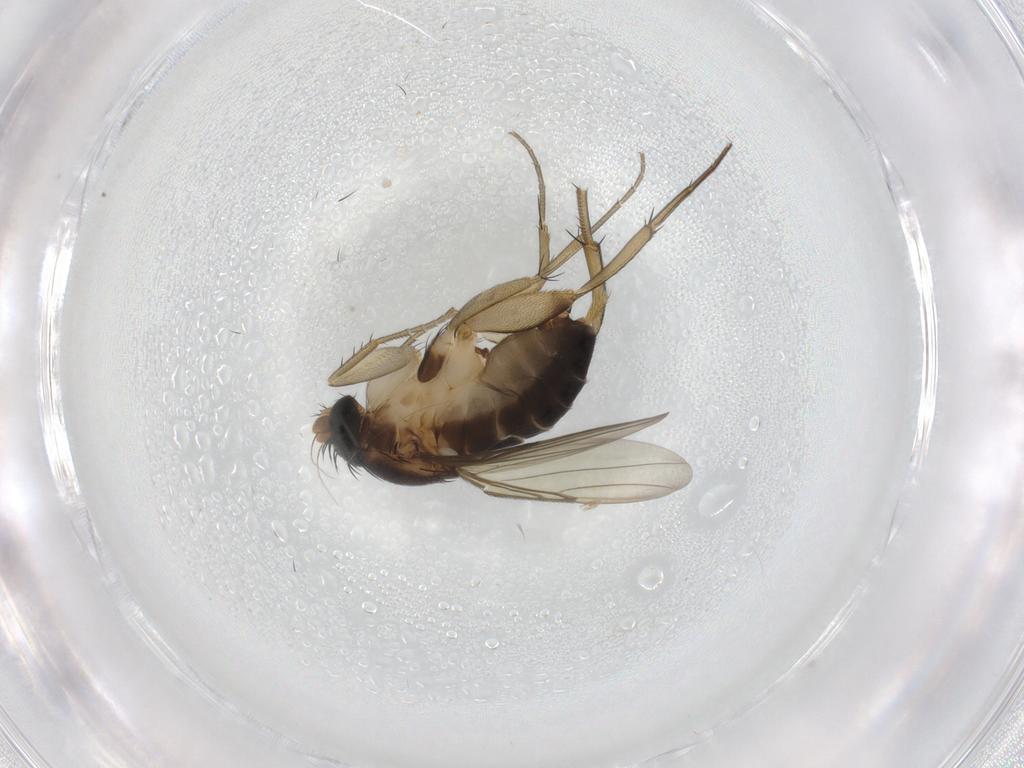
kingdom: Animalia
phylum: Arthropoda
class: Insecta
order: Diptera
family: Phoridae
